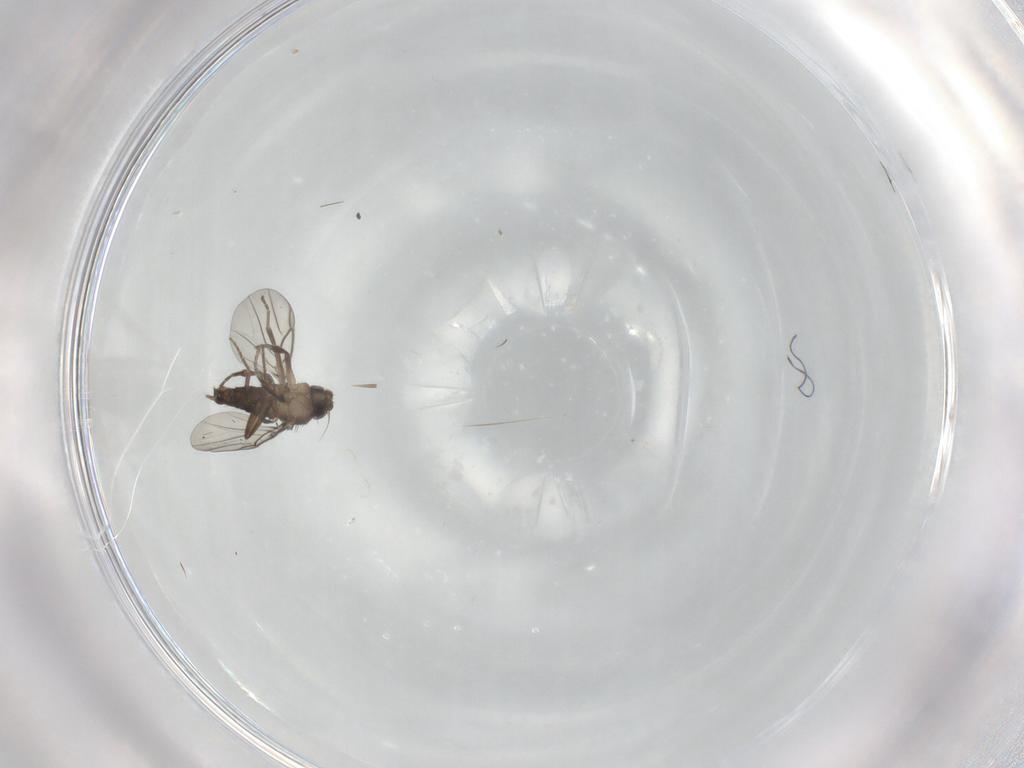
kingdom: Animalia
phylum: Arthropoda
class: Insecta
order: Diptera
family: Phoridae
